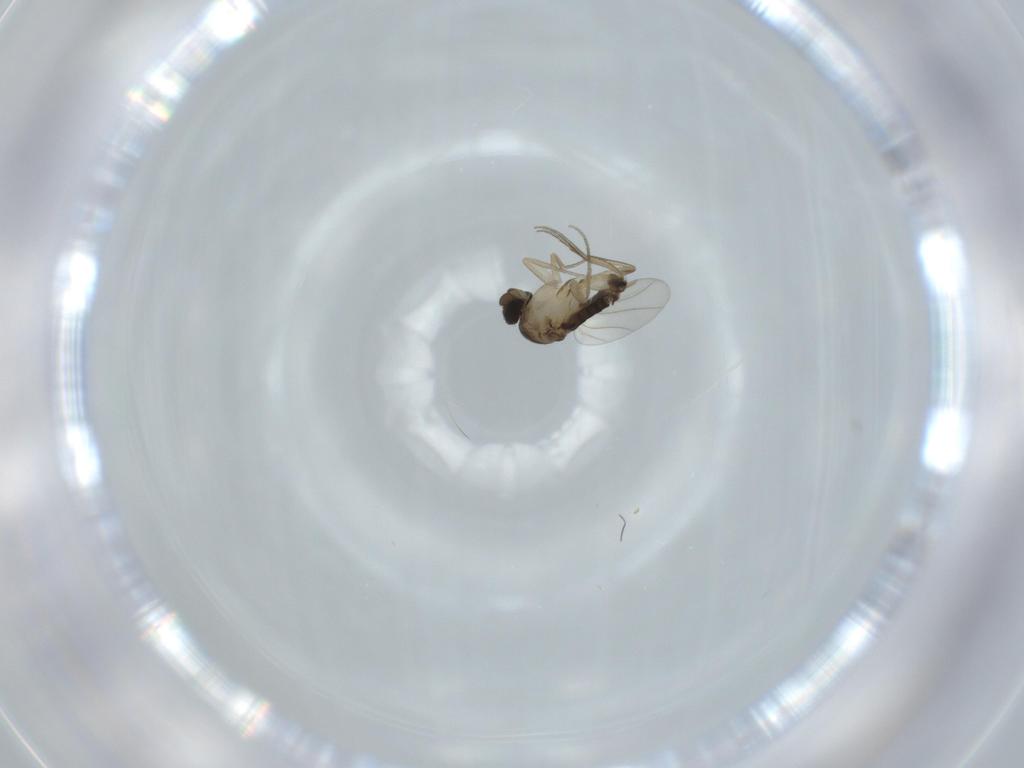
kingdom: Animalia
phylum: Arthropoda
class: Insecta
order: Diptera
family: Phoridae
